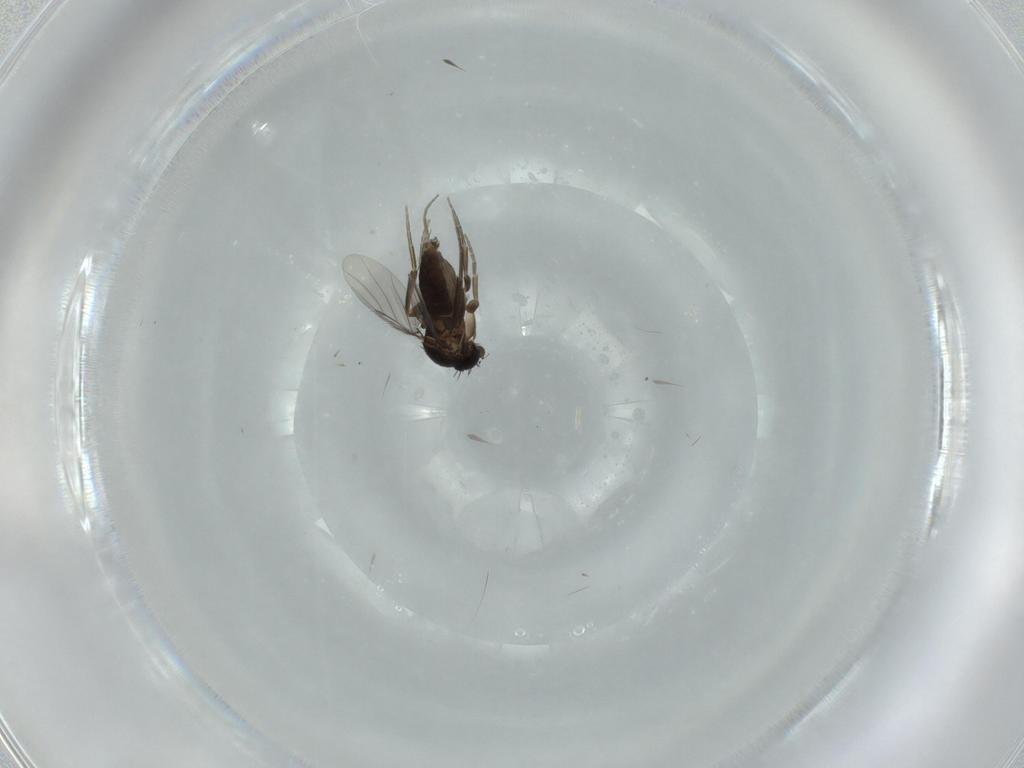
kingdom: Animalia
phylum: Arthropoda
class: Insecta
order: Diptera
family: Phoridae
